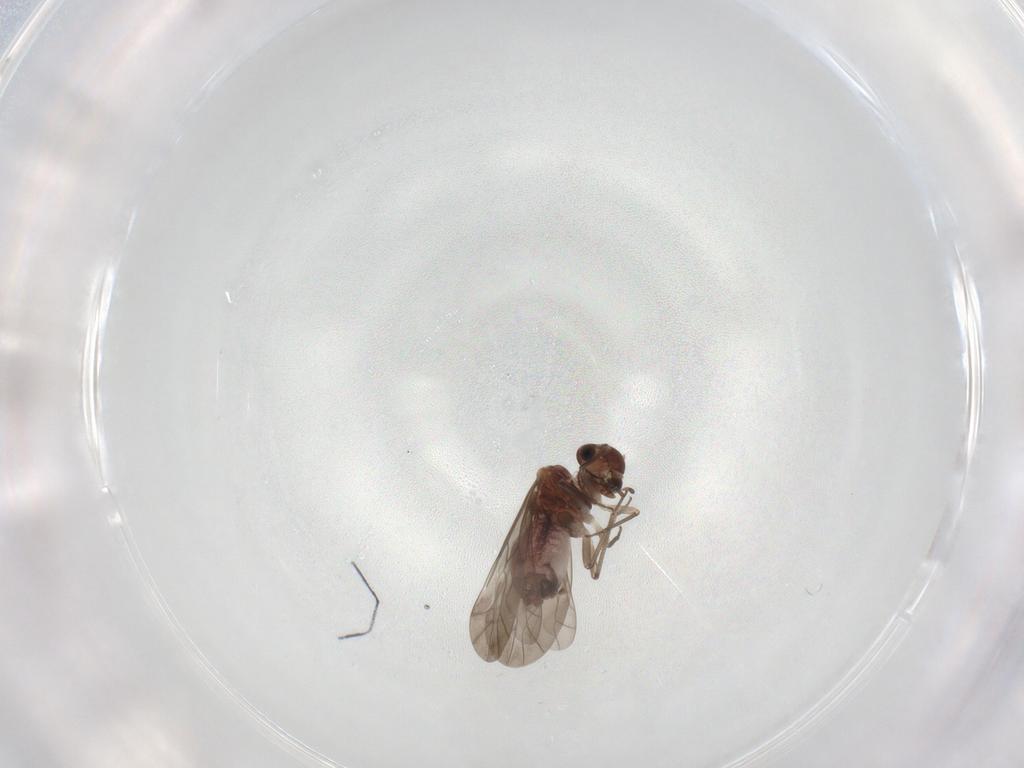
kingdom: Animalia
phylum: Arthropoda
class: Insecta
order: Psocodea
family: Lachesillidae
